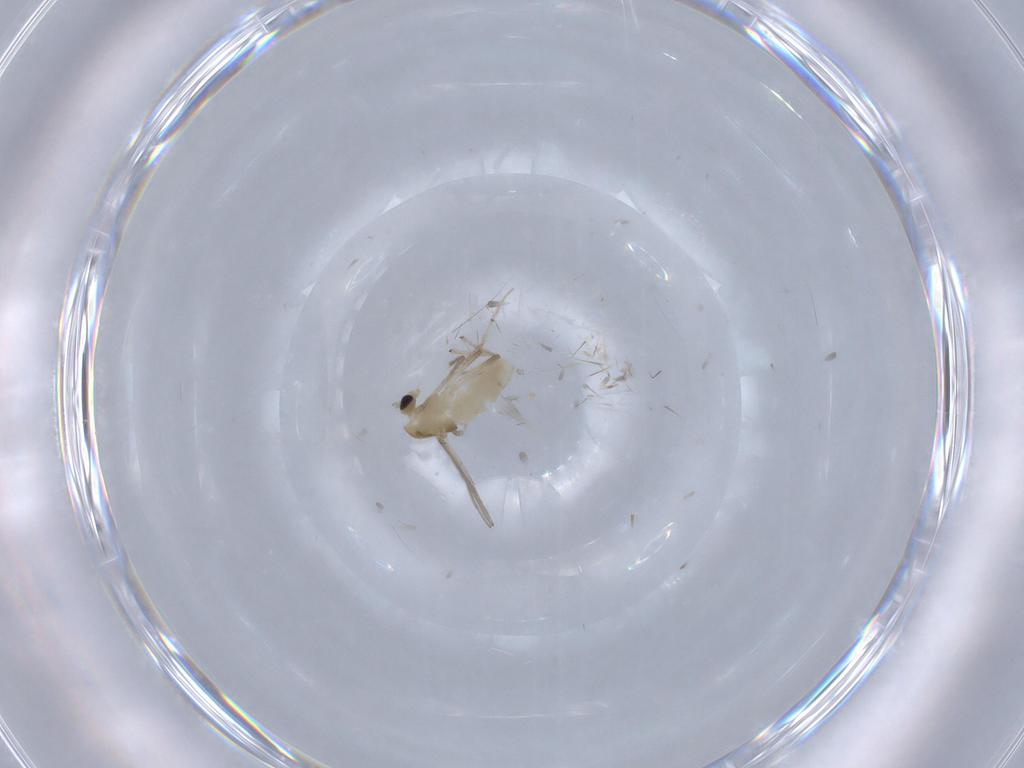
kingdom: Animalia
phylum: Arthropoda
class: Insecta
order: Diptera
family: Chironomidae
